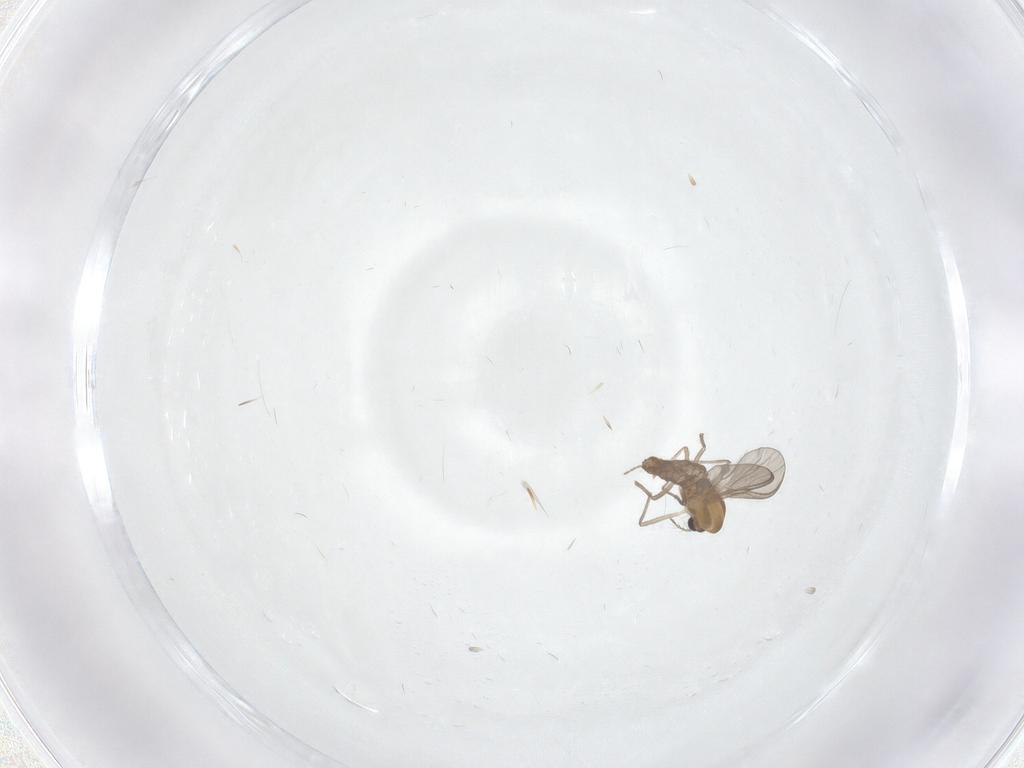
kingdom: Animalia
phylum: Arthropoda
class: Insecta
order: Diptera
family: Chironomidae
